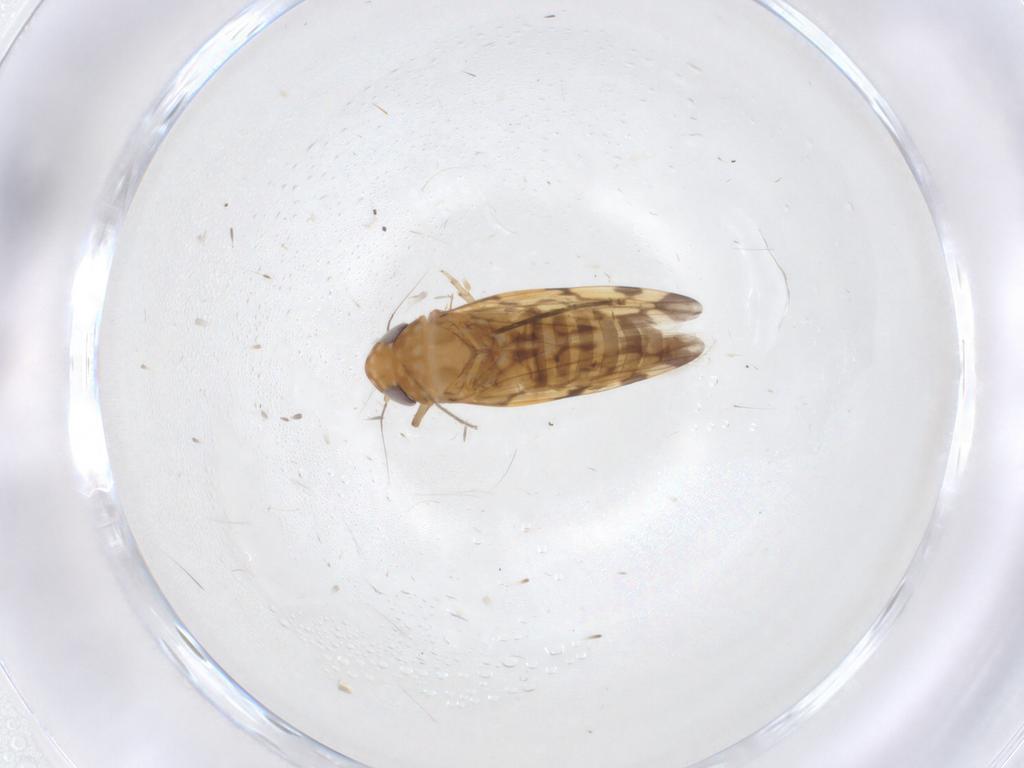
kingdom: Animalia
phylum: Arthropoda
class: Insecta
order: Hemiptera
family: Cicadellidae
